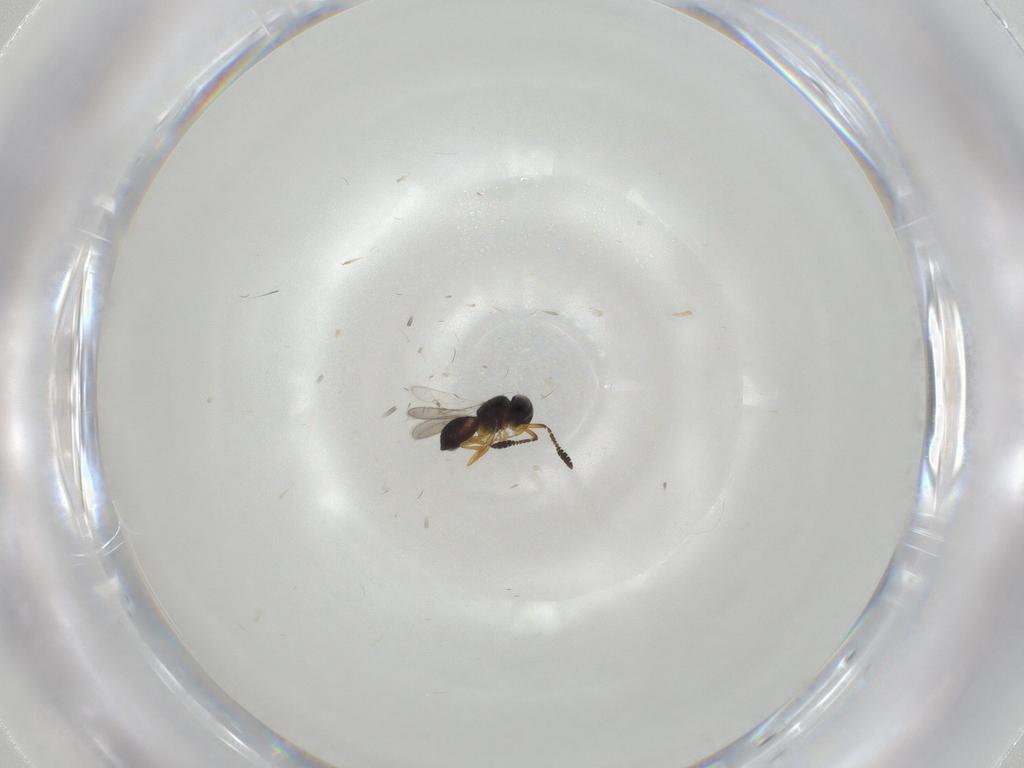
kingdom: Animalia
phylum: Arthropoda
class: Insecta
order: Hymenoptera
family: Scelionidae
